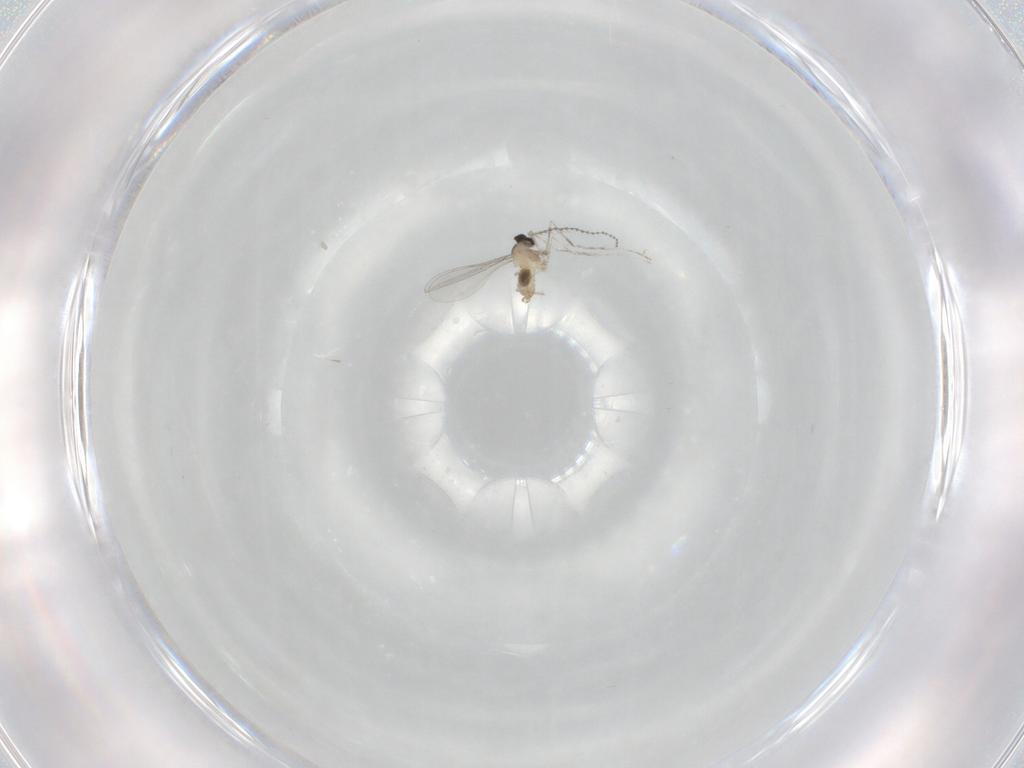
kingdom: Animalia
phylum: Arthropoda
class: Insecta
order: Diptera
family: Cecidomyiidae
